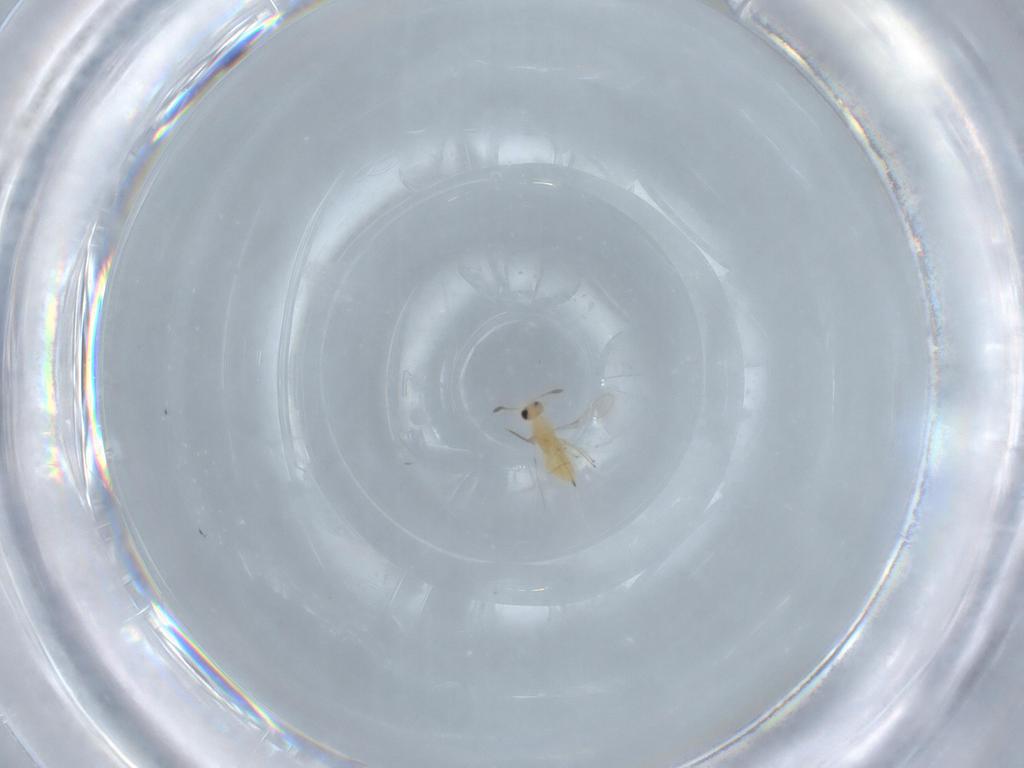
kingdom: Animalia
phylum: Arthropoda
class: Insecta
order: Hymenoptera
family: Mymaridae
